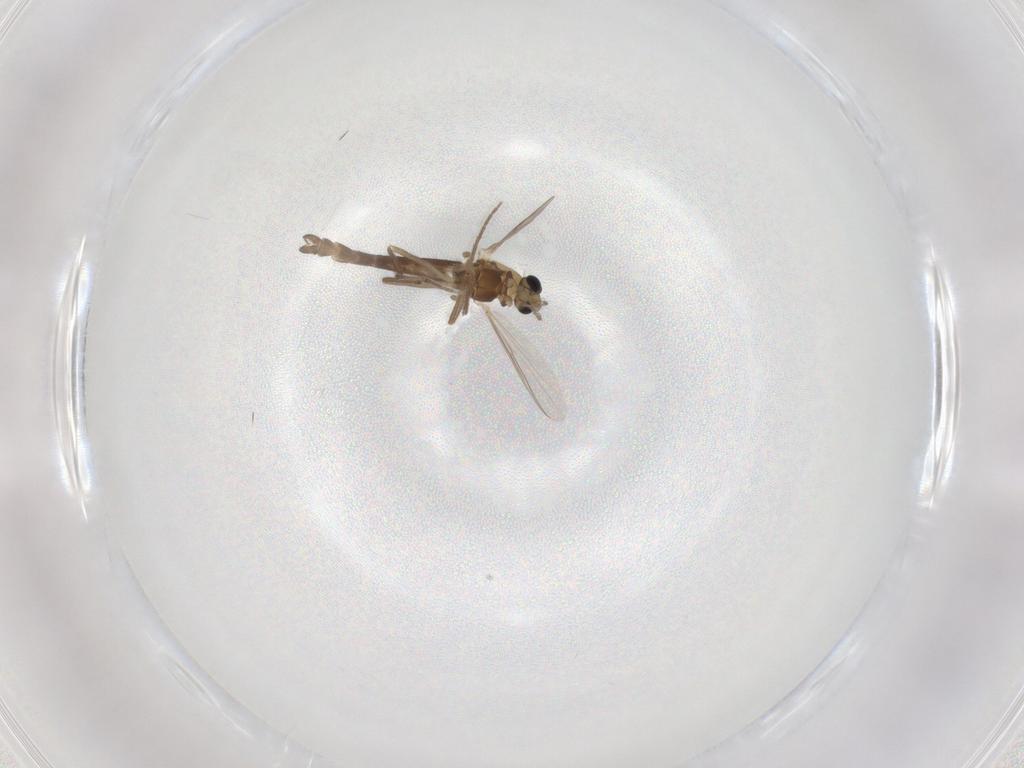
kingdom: Animalia
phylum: Arthropoda
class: Insecta
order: Diptera
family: Chironomidae
